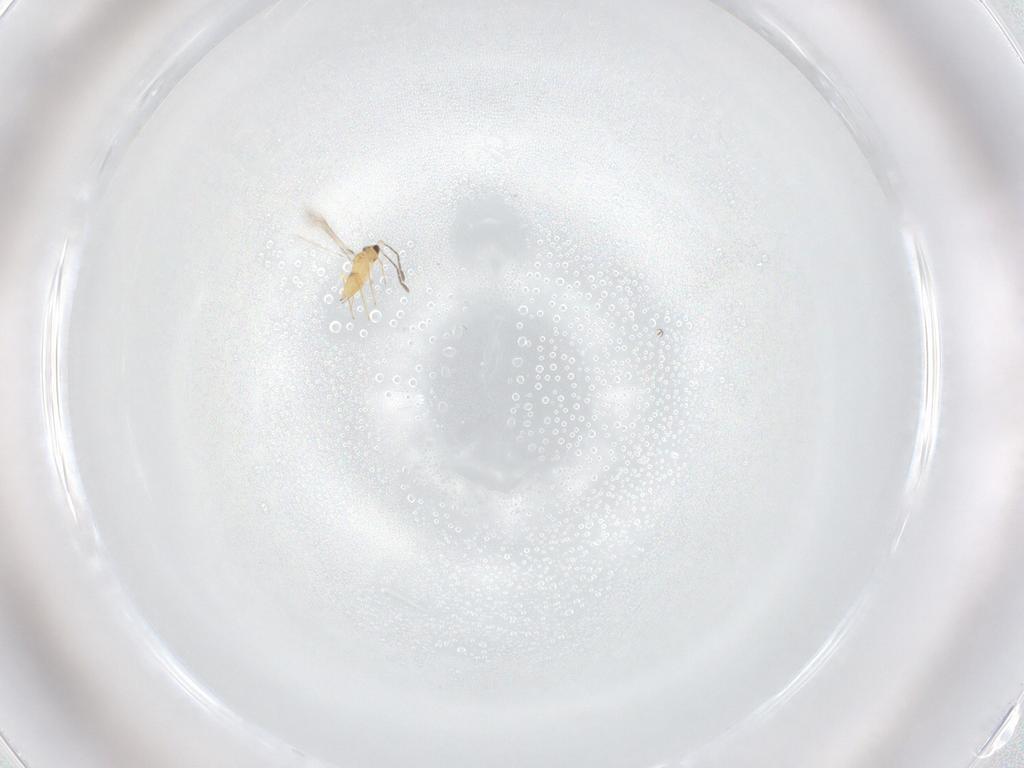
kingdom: Animalia
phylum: Arthropoda
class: Insecta
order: Hymenoptera
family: Mymaridae
